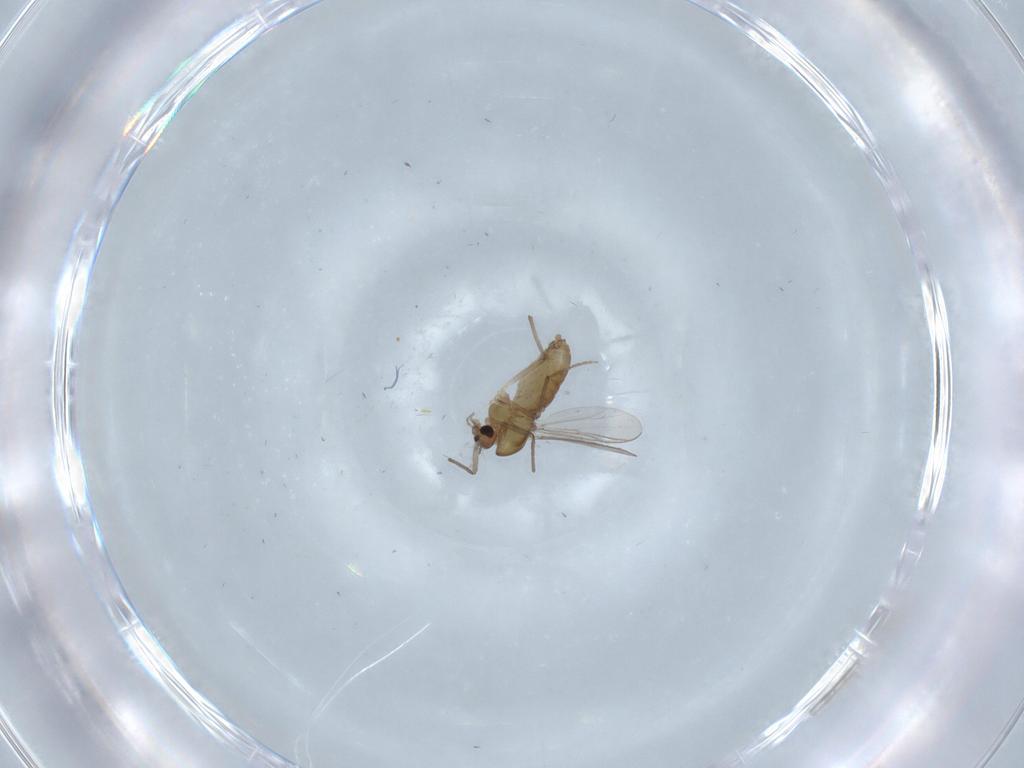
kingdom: Animalia
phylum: Arthropoda
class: Insecta
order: Diptera
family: Chironomidae
